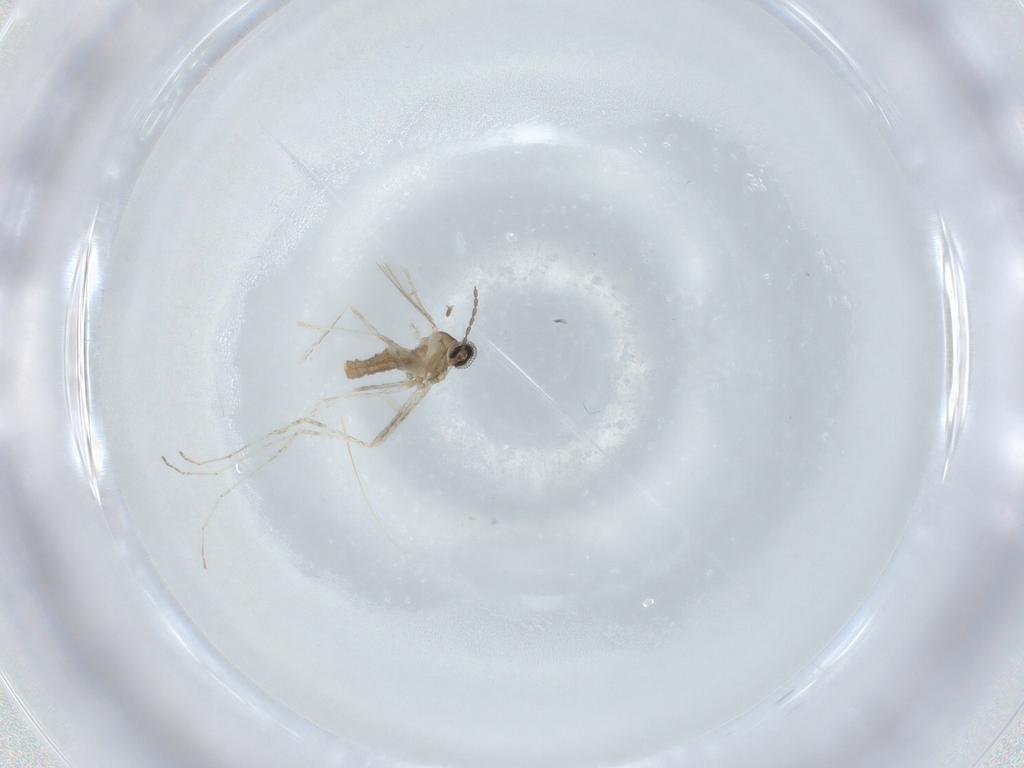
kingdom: Animalia
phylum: Arthropoda
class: Insecta
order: Diptera
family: Cecidomyiidae
